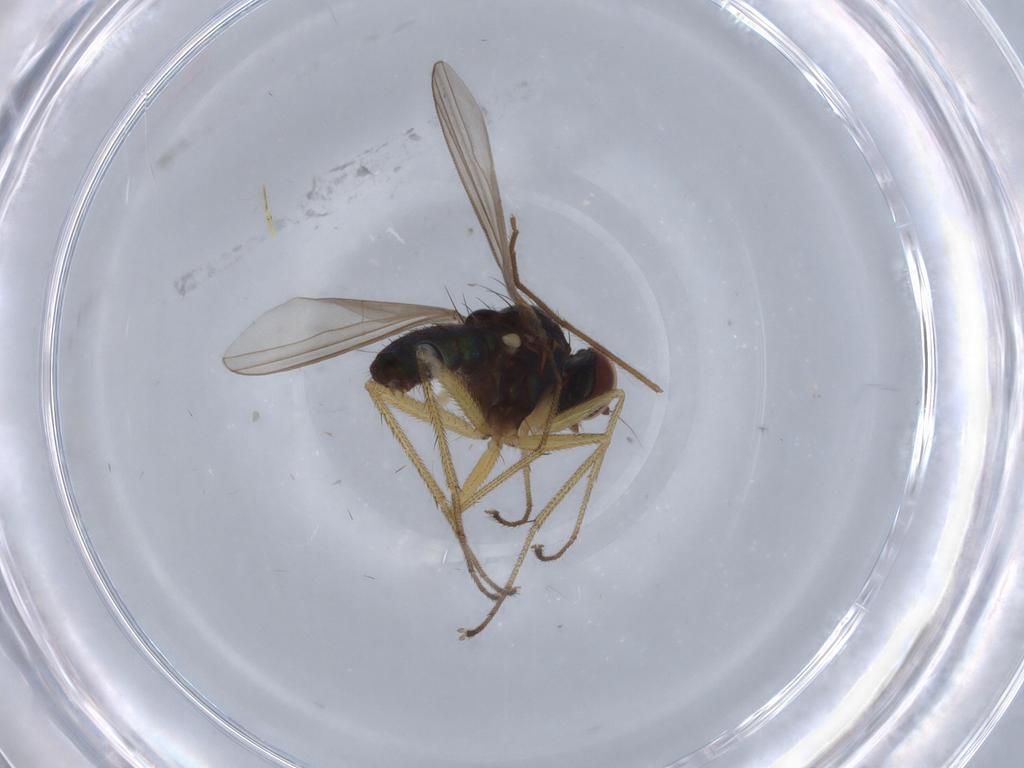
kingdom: Animalia
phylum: Arthropoda
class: Insecta
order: Diptera
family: Dolichopodidae
